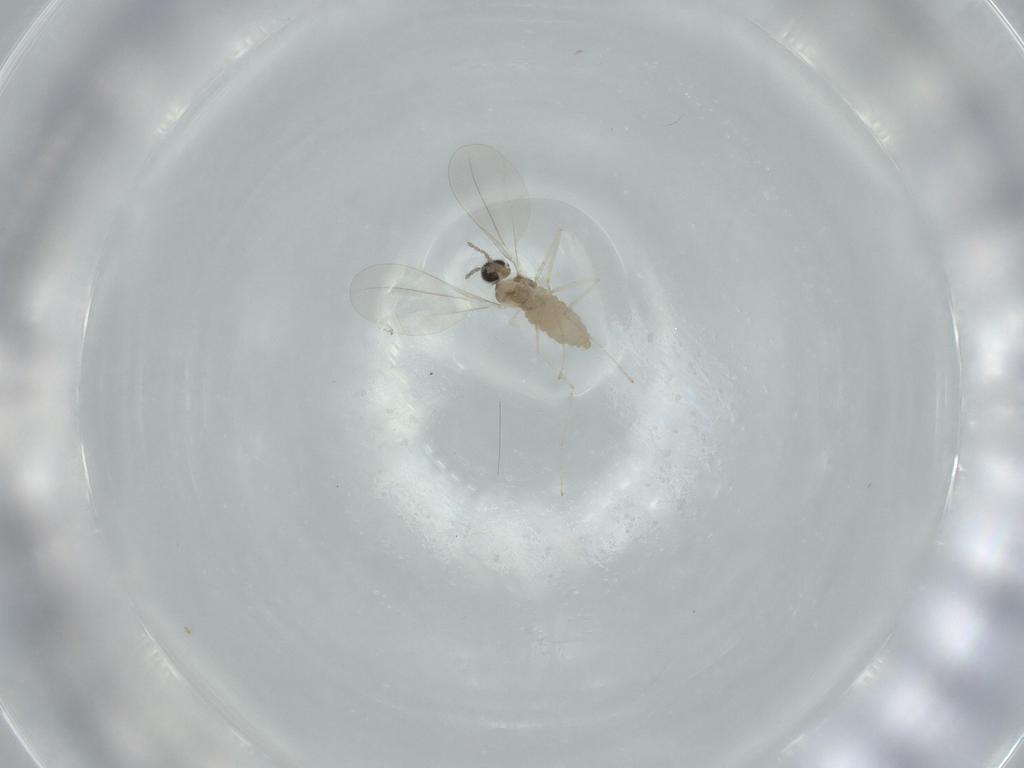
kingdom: Animalia
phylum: Arthropoda
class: Insecta
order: Diptera
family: Cecidomyiidae
